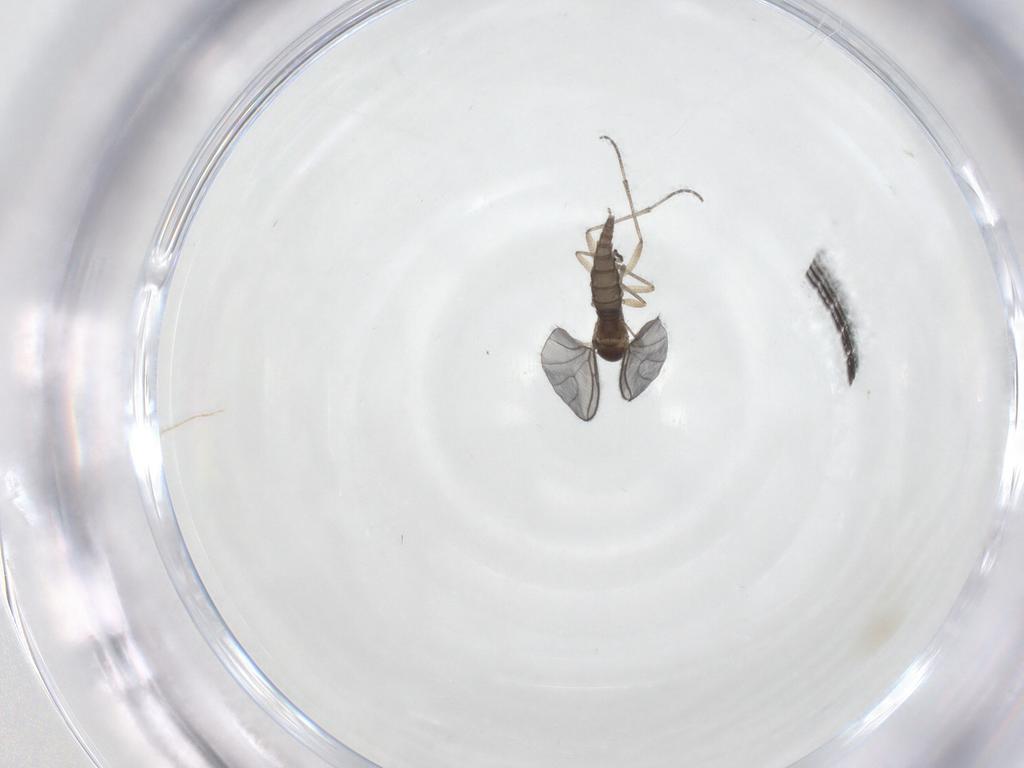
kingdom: Animalia
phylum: Arthropoda
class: Insecta
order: Diptera
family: Sciaridae
